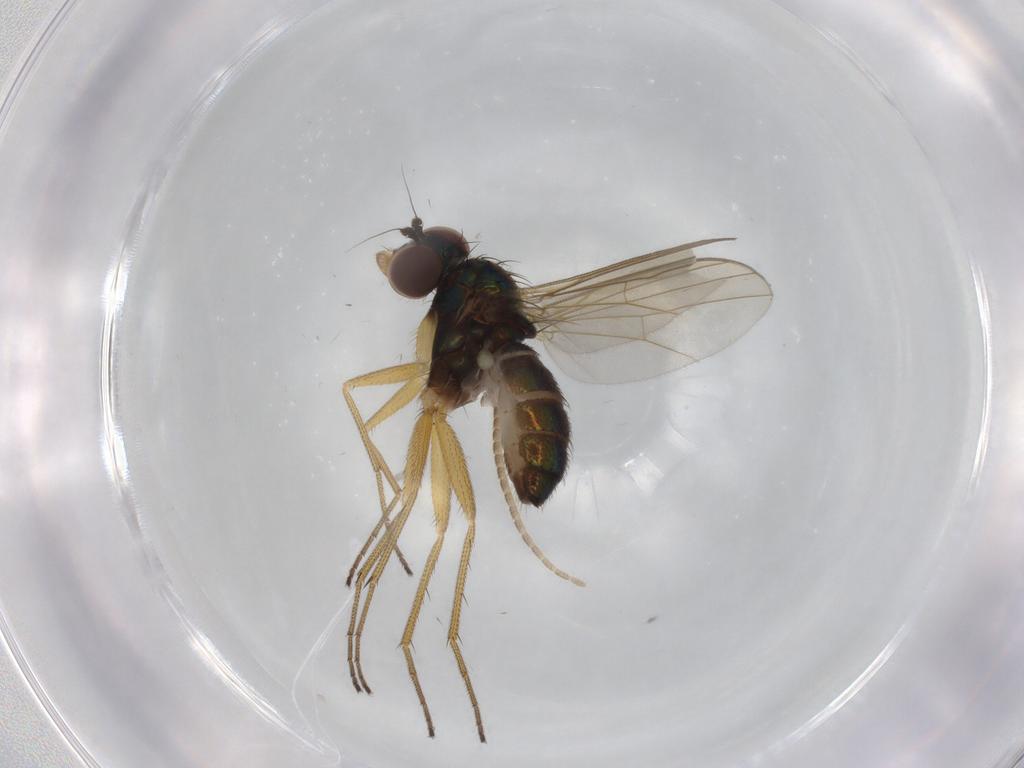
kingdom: Animalia
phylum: Arthropoda
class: Insecta
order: Diptera
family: Dolichopodidae
